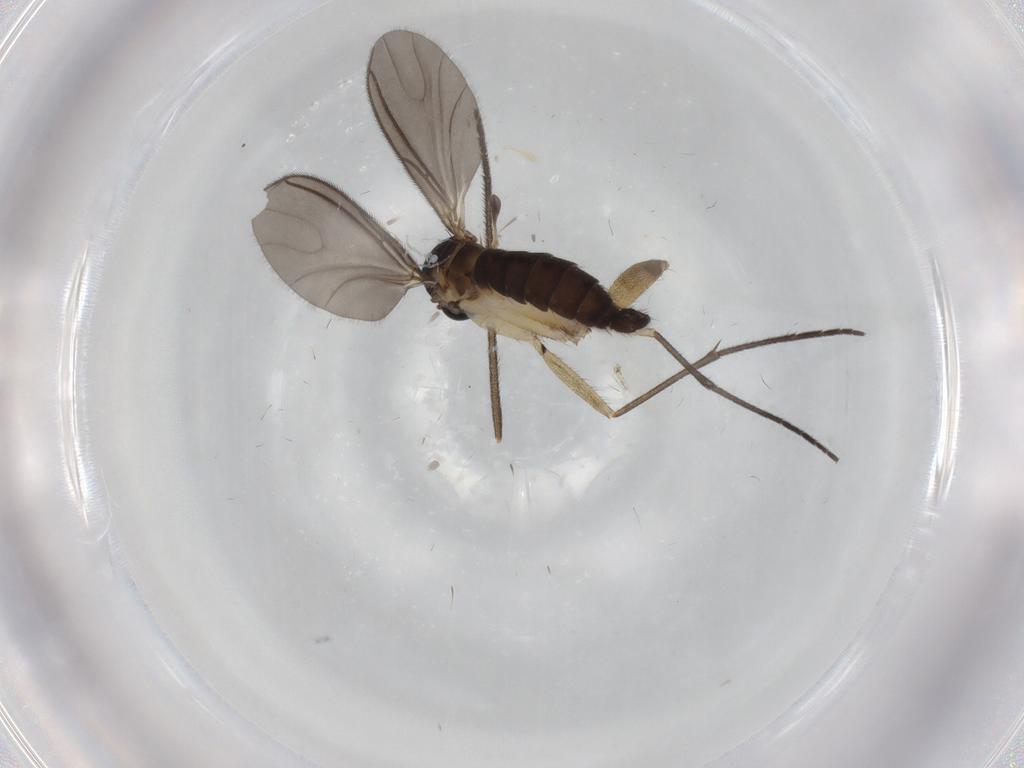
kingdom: Animalia
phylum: Arthropoda
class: Insecta
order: Diptera
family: Sciaridae
